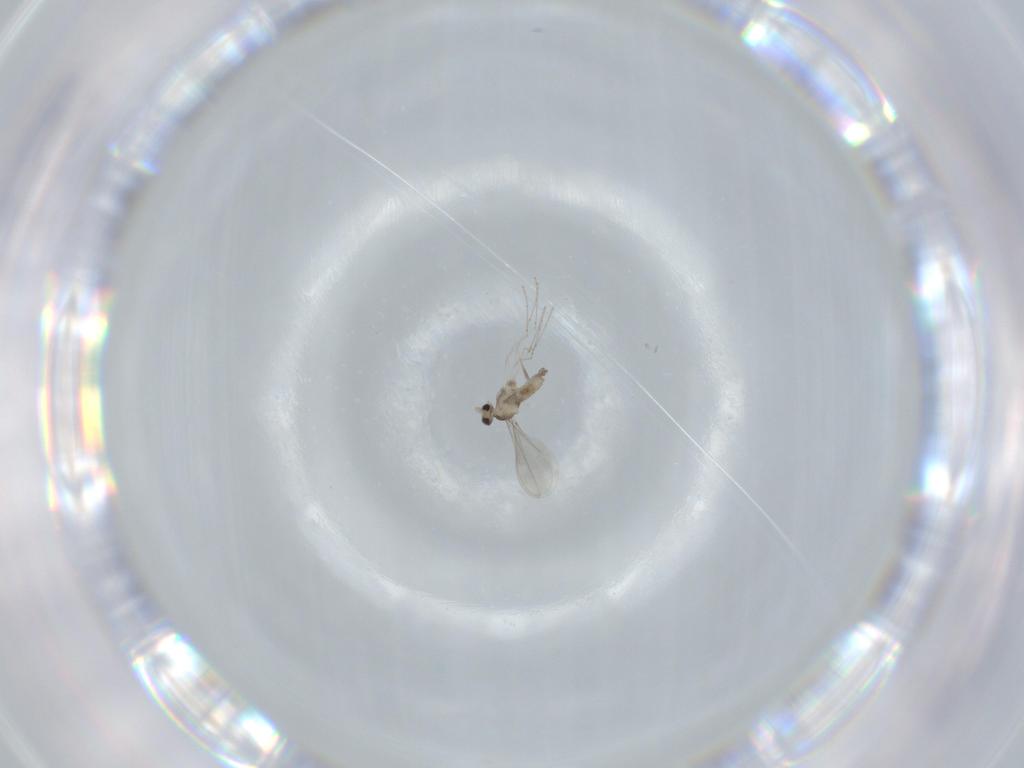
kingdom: Animalia
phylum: Arthropoda
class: Insecta
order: Diptera
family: Cecidomyiidae
